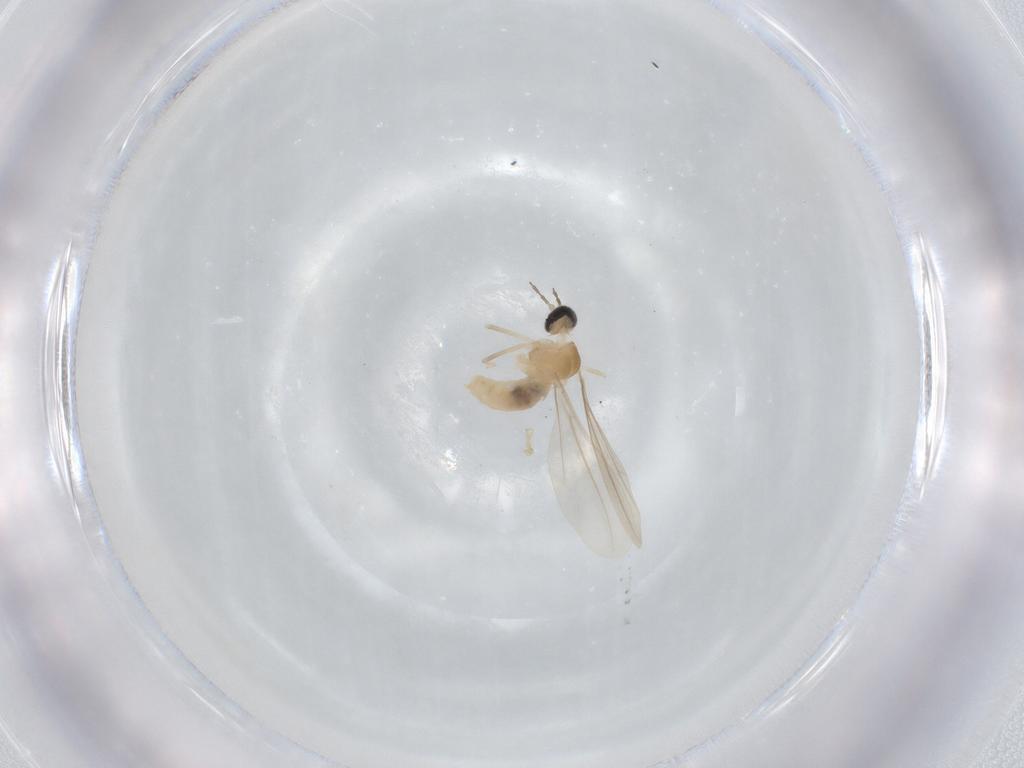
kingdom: Animalia
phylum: Arthropoda
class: Insecta
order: Diptera
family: Cecidomyiidae
